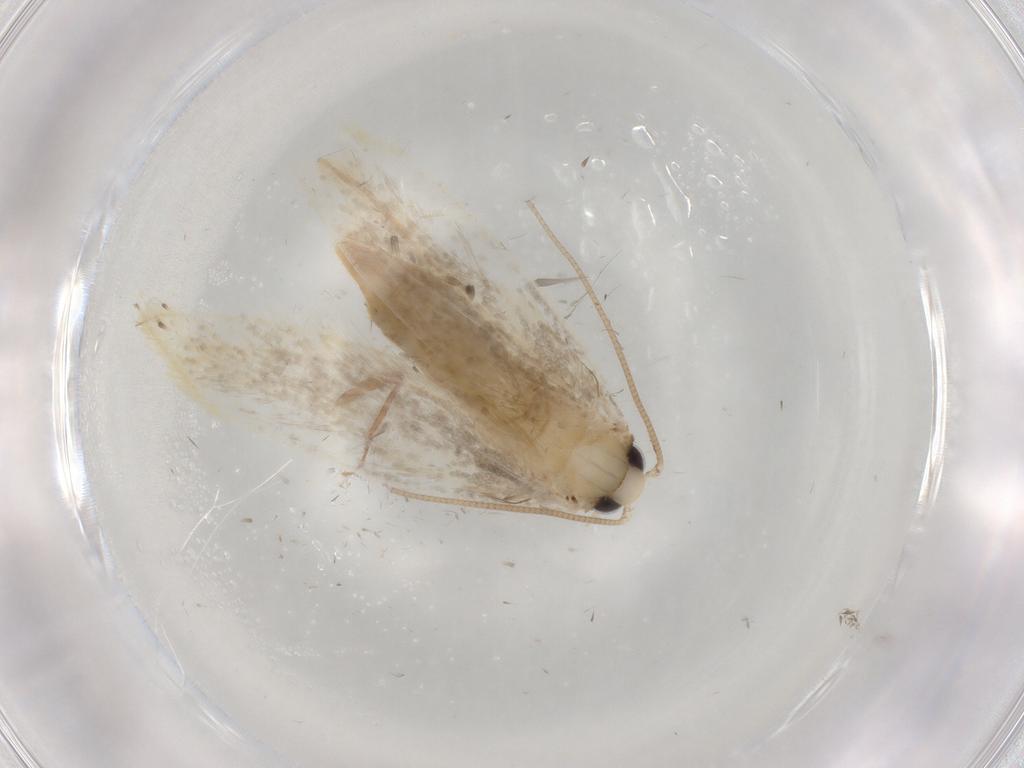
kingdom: Animalia
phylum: Arthropoda
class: Insecta
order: Lepidoptera
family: Tineidae
